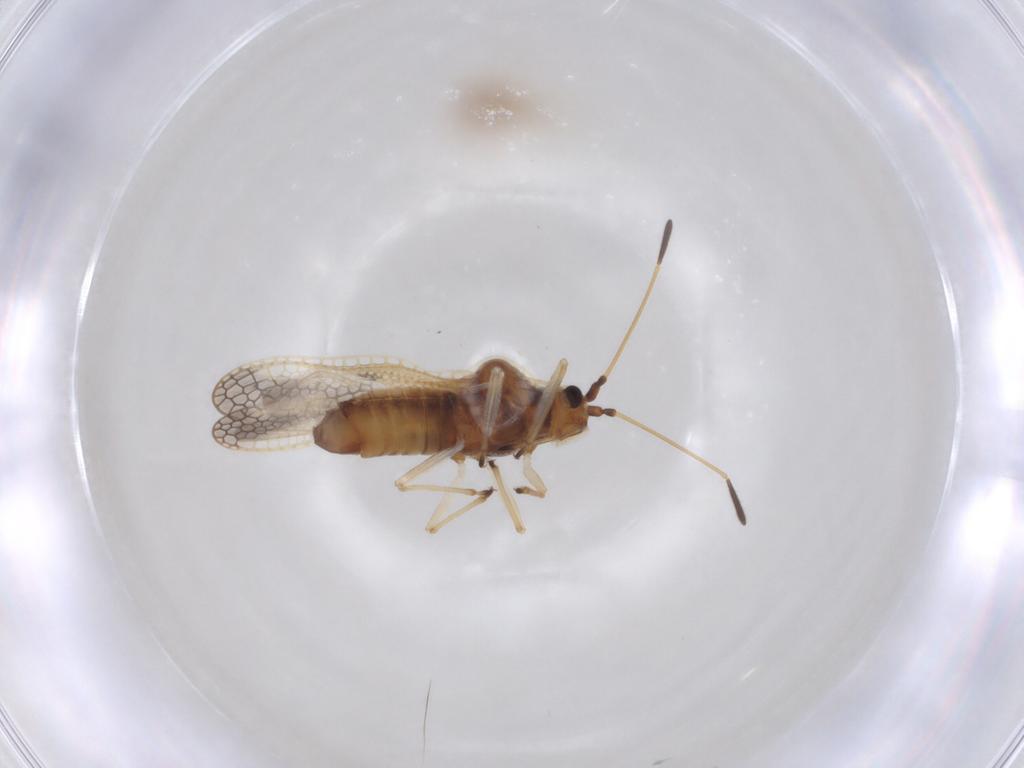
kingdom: Animalia
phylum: Arthropoda
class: Insecta
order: Hemiptera
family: Tingidae
